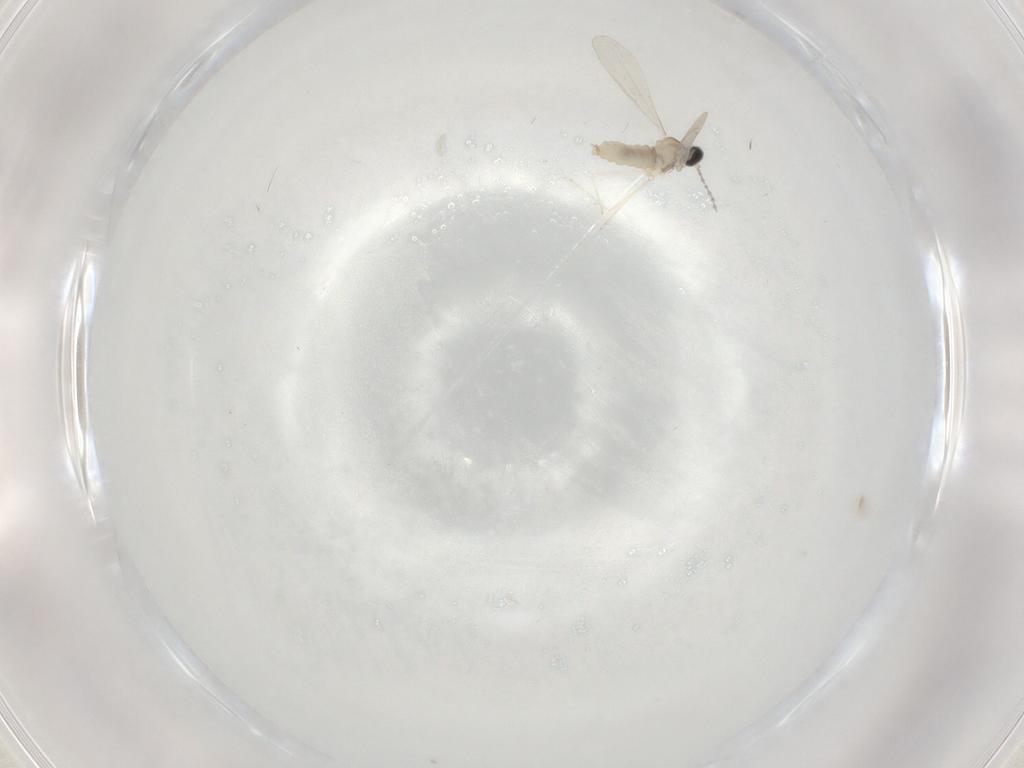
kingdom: Animalia
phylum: Arthropoda
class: Insecta
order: Diptera
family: Cecidomyiidae
